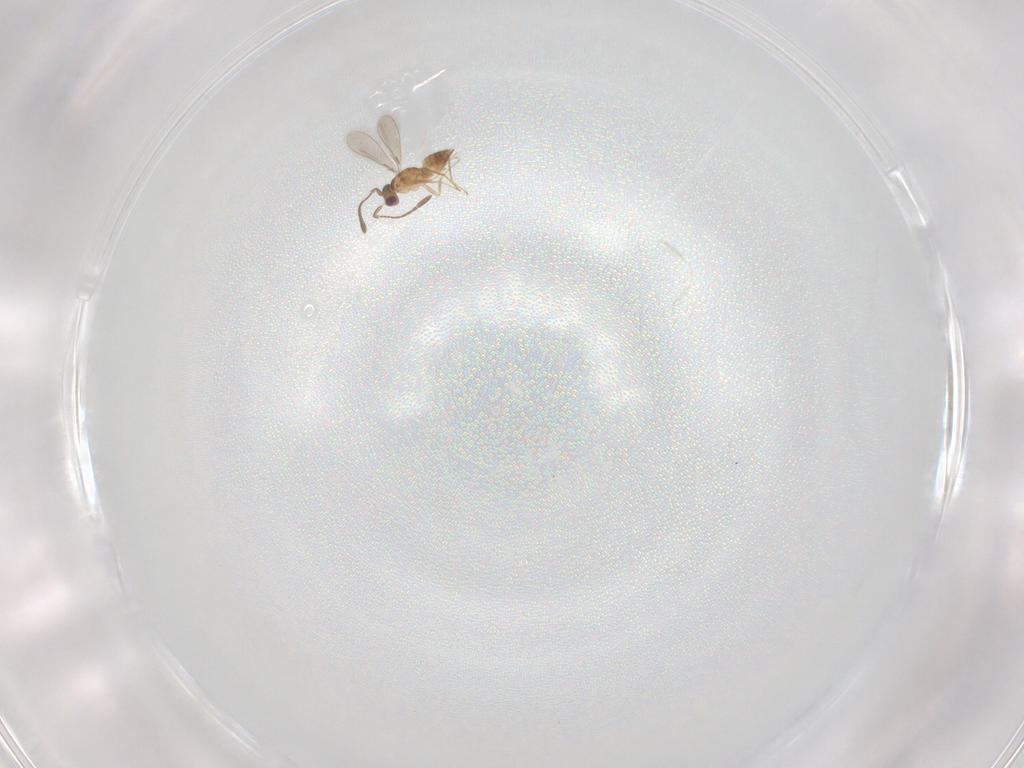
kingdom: Animalia
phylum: Arthropoda
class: Insecta
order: Hymenoptera
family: Mymaridae
